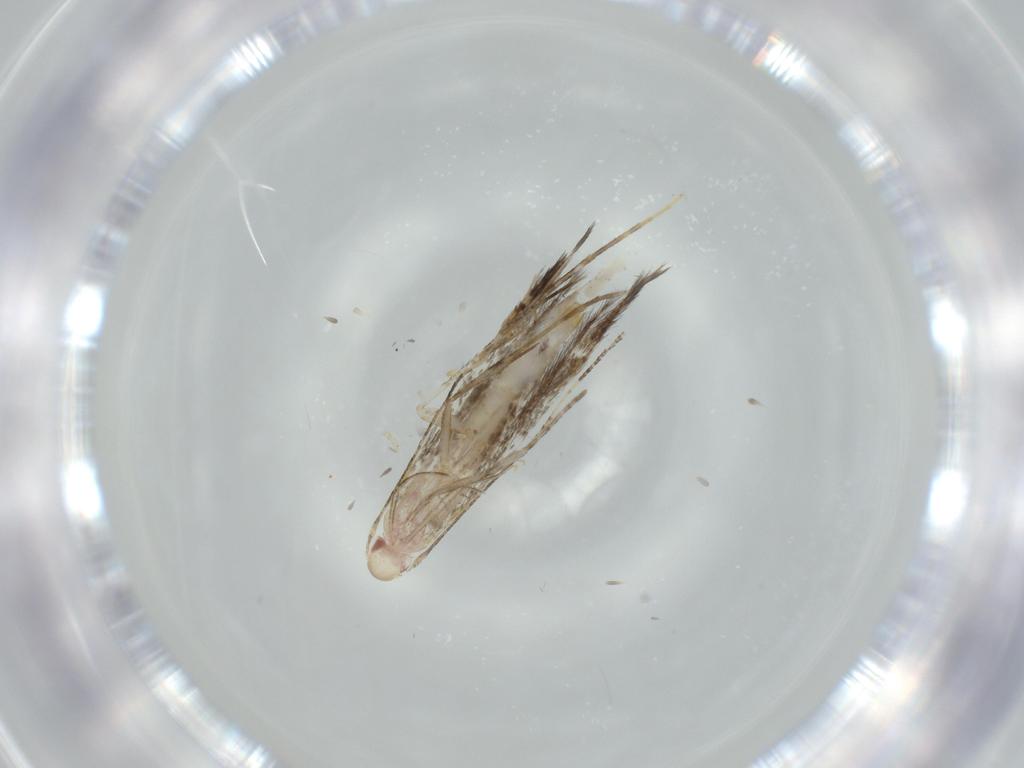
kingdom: Animalia
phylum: Arthropoda
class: Insecta
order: Lepidoptera
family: Cosmopterigidae
